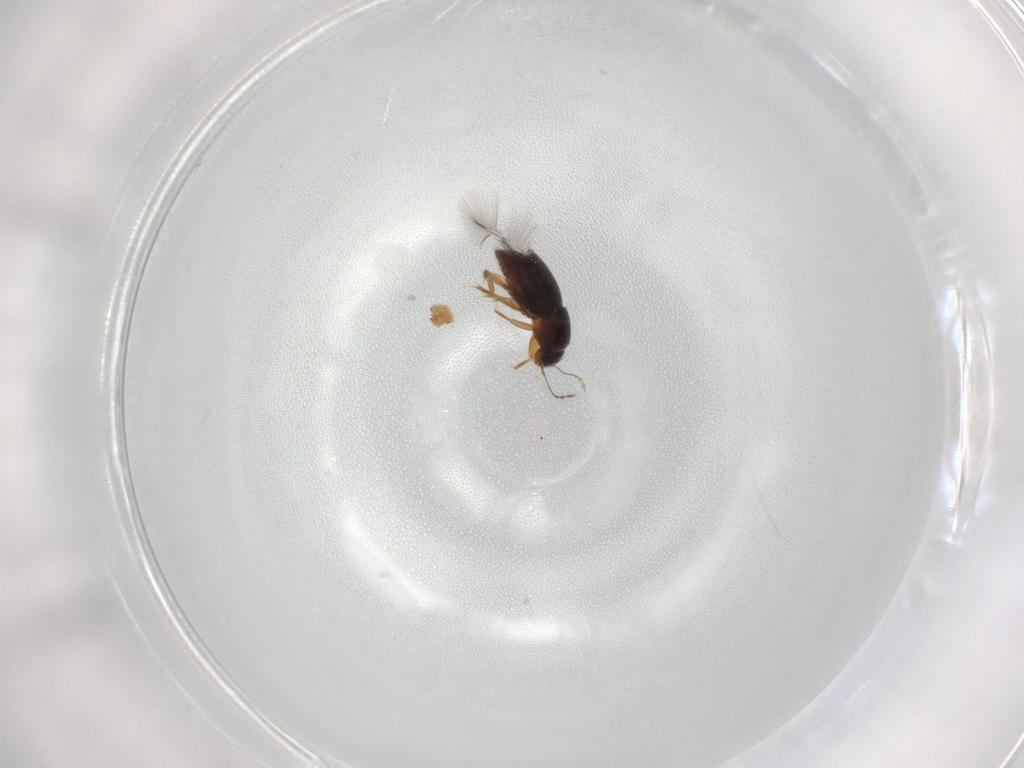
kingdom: Animalia
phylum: Arthropoda
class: Insecta
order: Coleoptera
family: Ptiliidae
